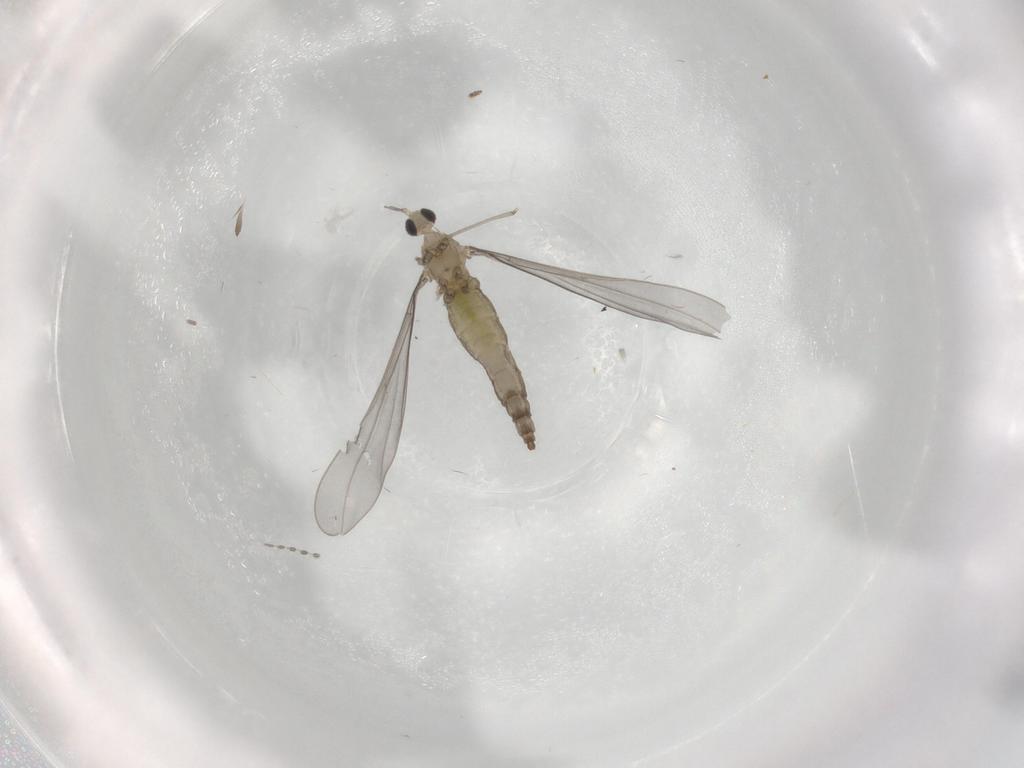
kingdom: Animalia
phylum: Arthropoda
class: Insecta
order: Diptera
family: Cecidomyiidae
